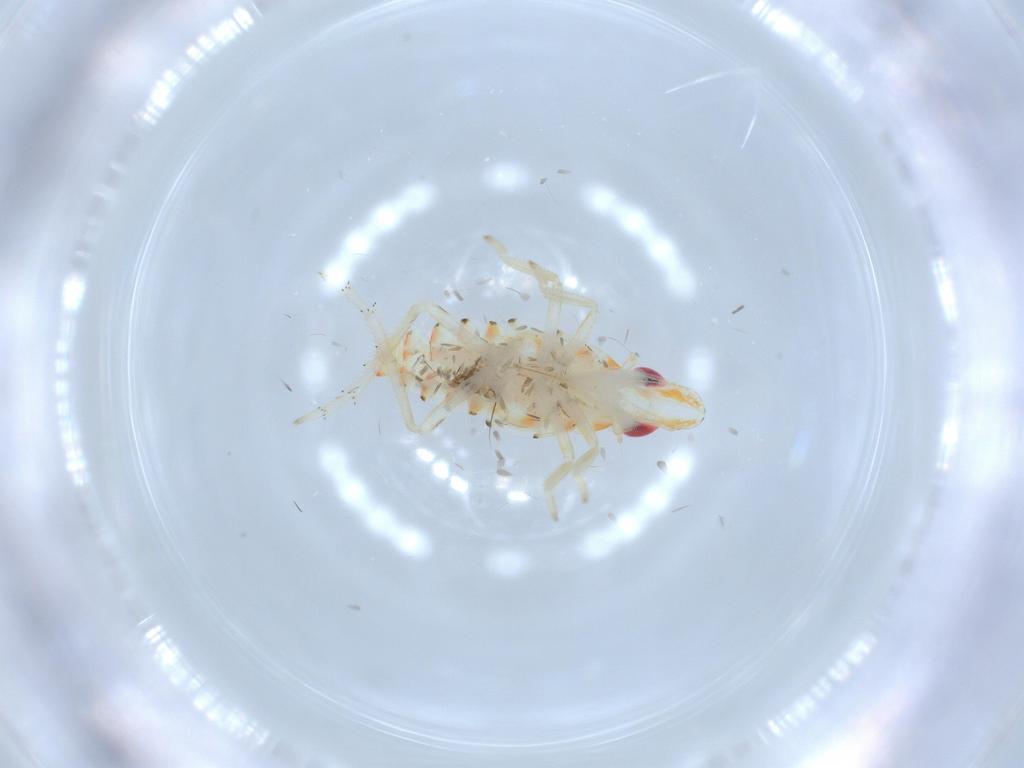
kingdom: Animalia
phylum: Arthropoda
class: Insecta
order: Hemiptera
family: Tropiduchidae
